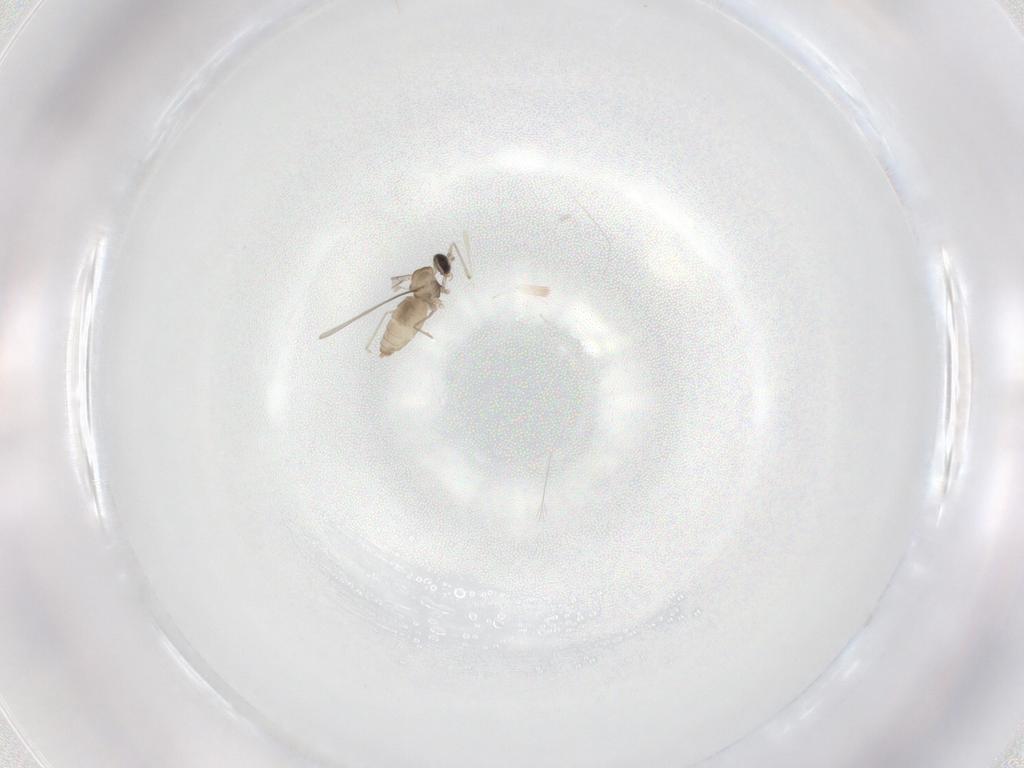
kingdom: Animalia
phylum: Arthropoda
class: Insecta
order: Diptera
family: Cecidomyiidae
